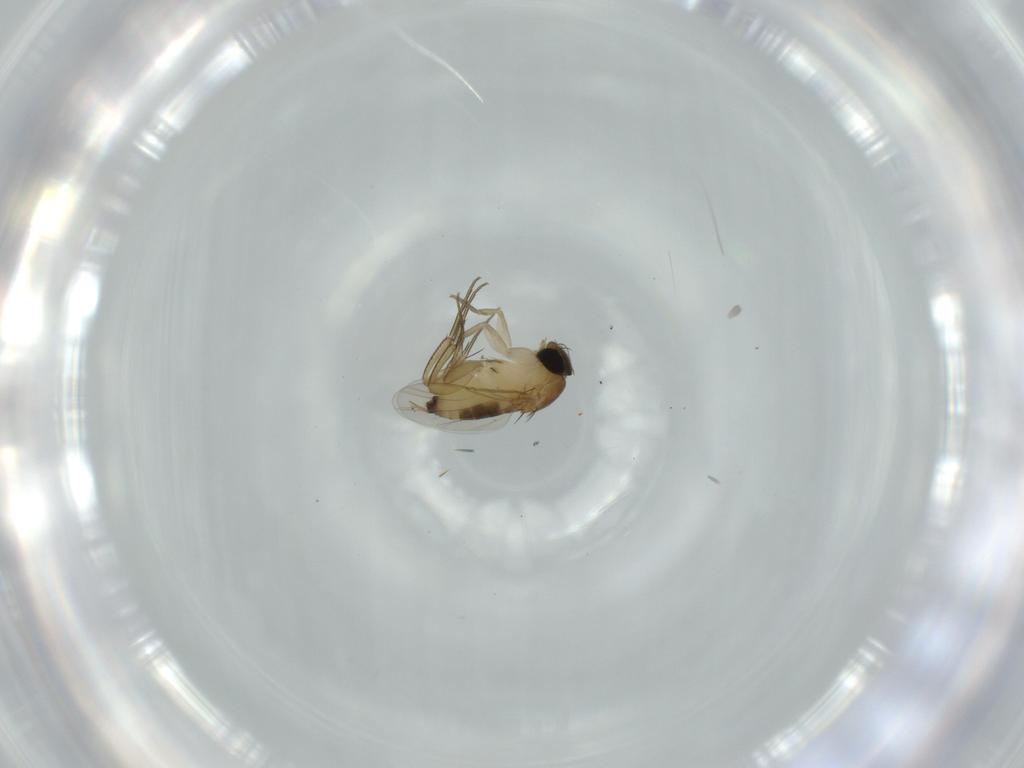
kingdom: Animalia
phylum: Arthropoda
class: Insecta
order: Diptera
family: Phoridae
